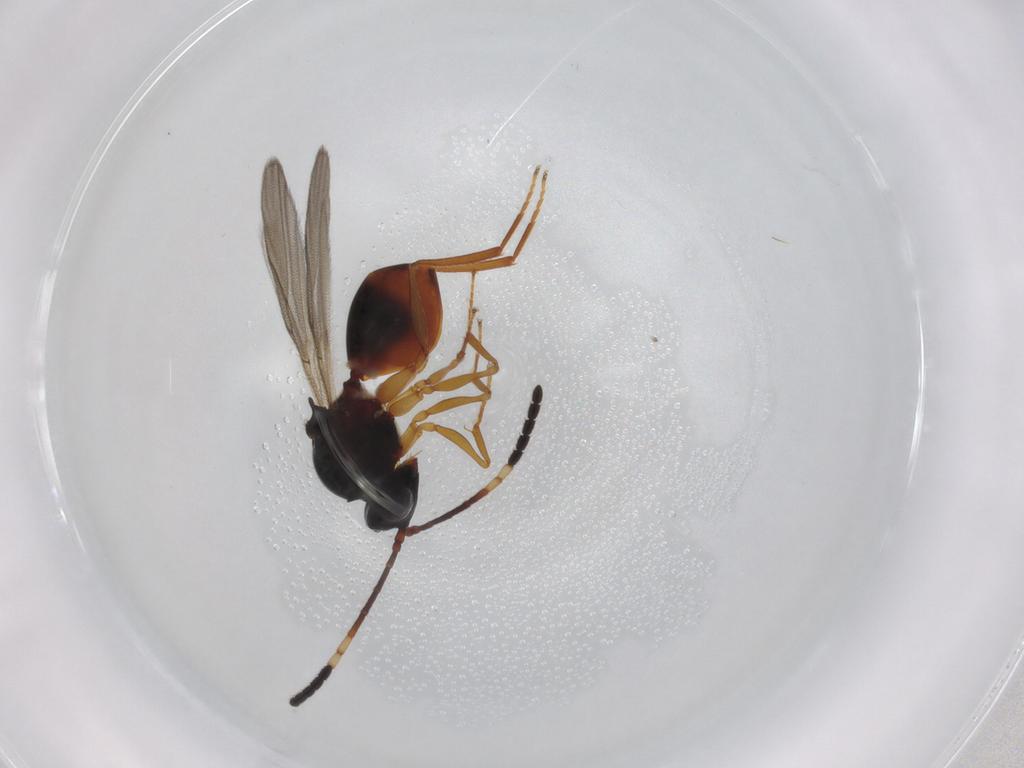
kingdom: Animalia
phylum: Arthropoda
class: Insecta
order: Hymenoptera
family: Figitidae
